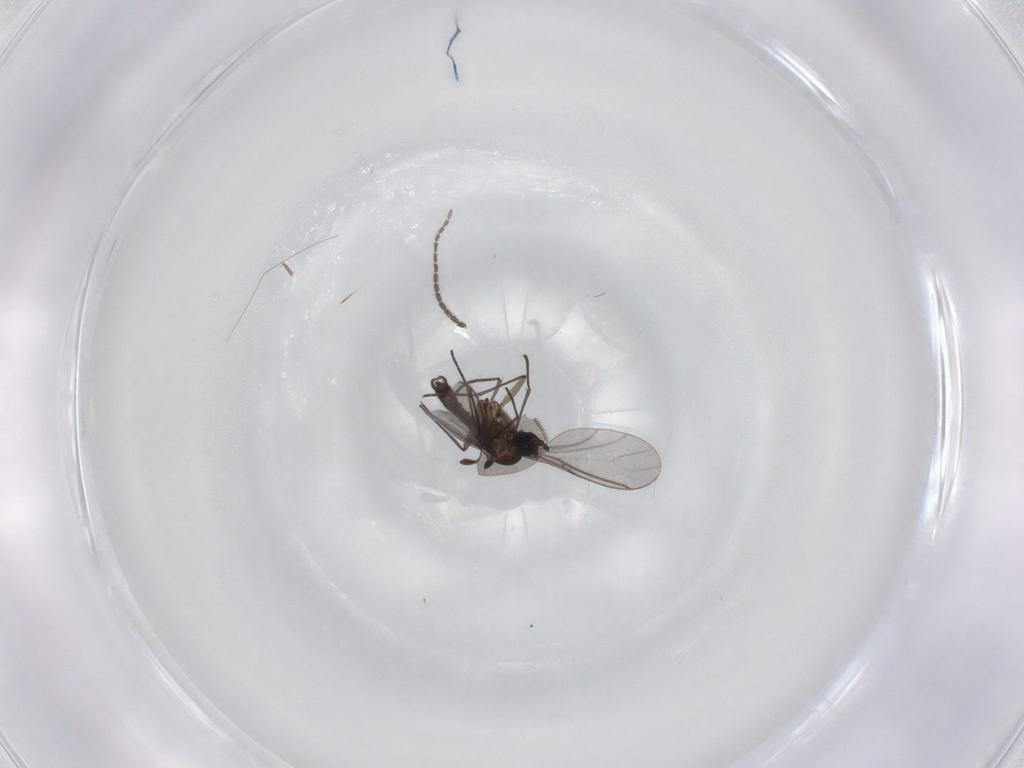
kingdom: Animalia
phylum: Arthropoda
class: Insecta
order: Diptera
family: Sciaridae
